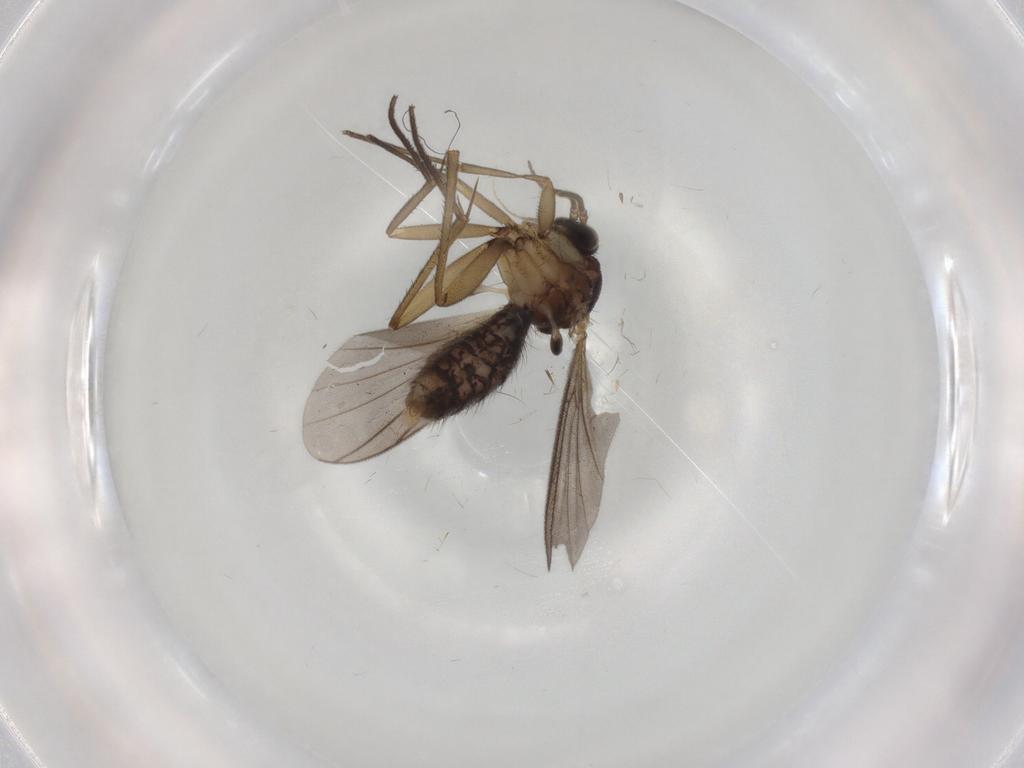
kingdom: Animalia
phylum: Arthropoda
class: Insecta
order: Diptera
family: Mycetophilidae
